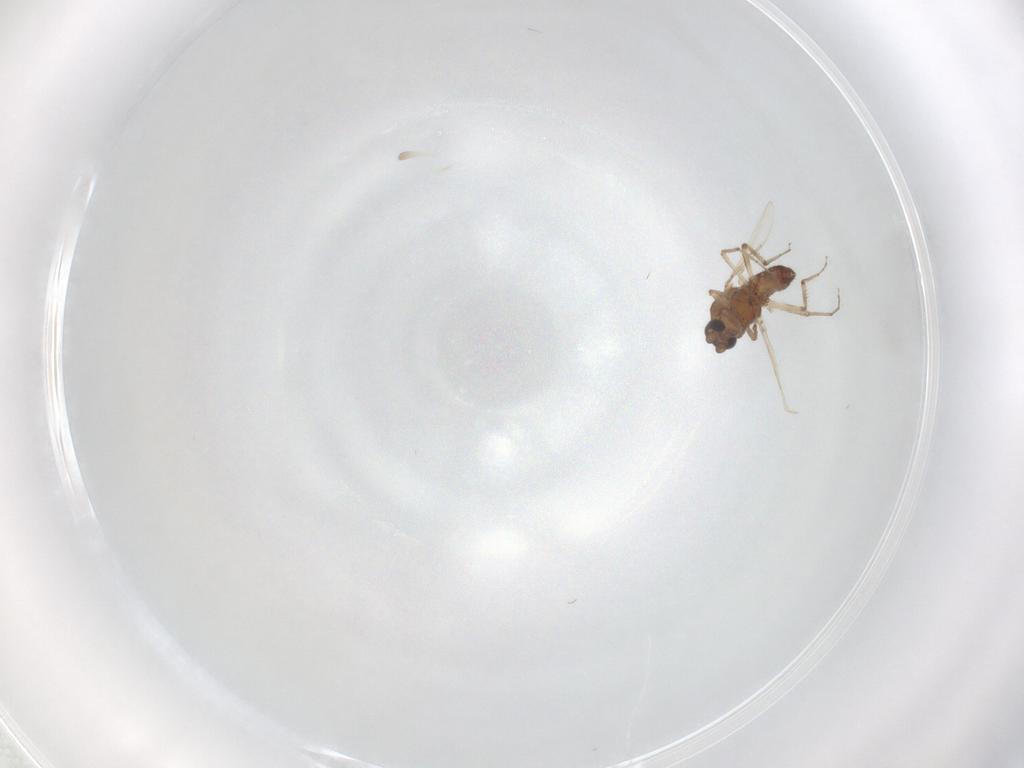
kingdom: Animalia
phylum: Arthropoda
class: Insecta
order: Diptera
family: Ceratopogonidae
